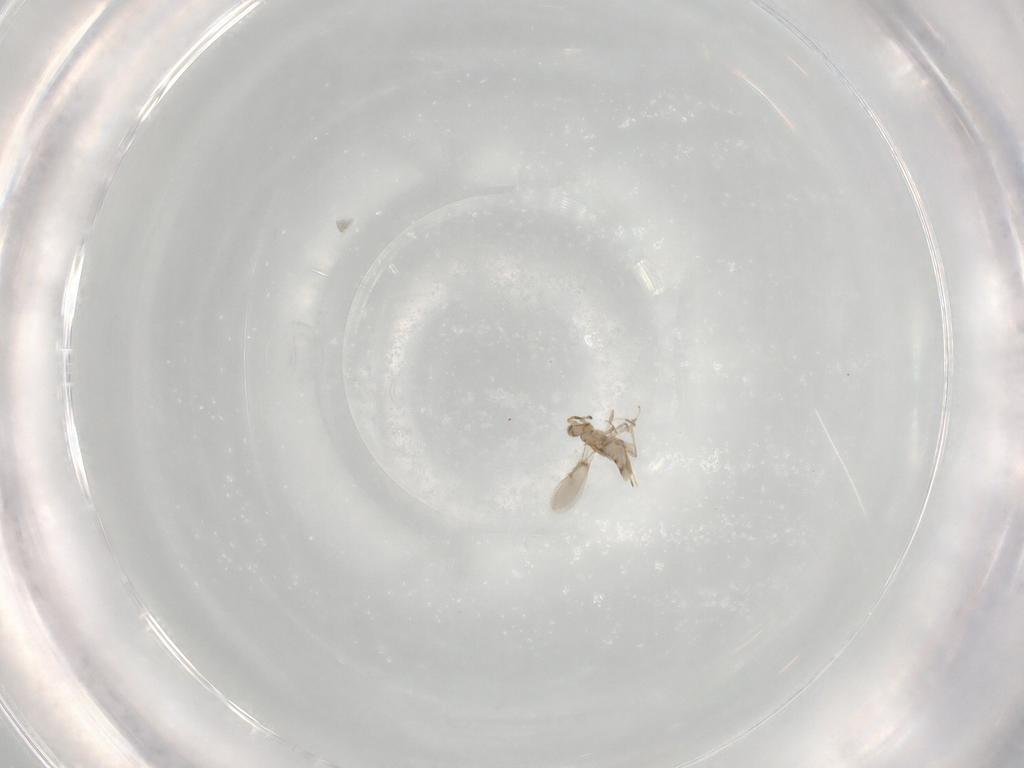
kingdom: Animalia
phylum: Arthropoda
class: Insecta
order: Hymenoptera
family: Aphelinidae
